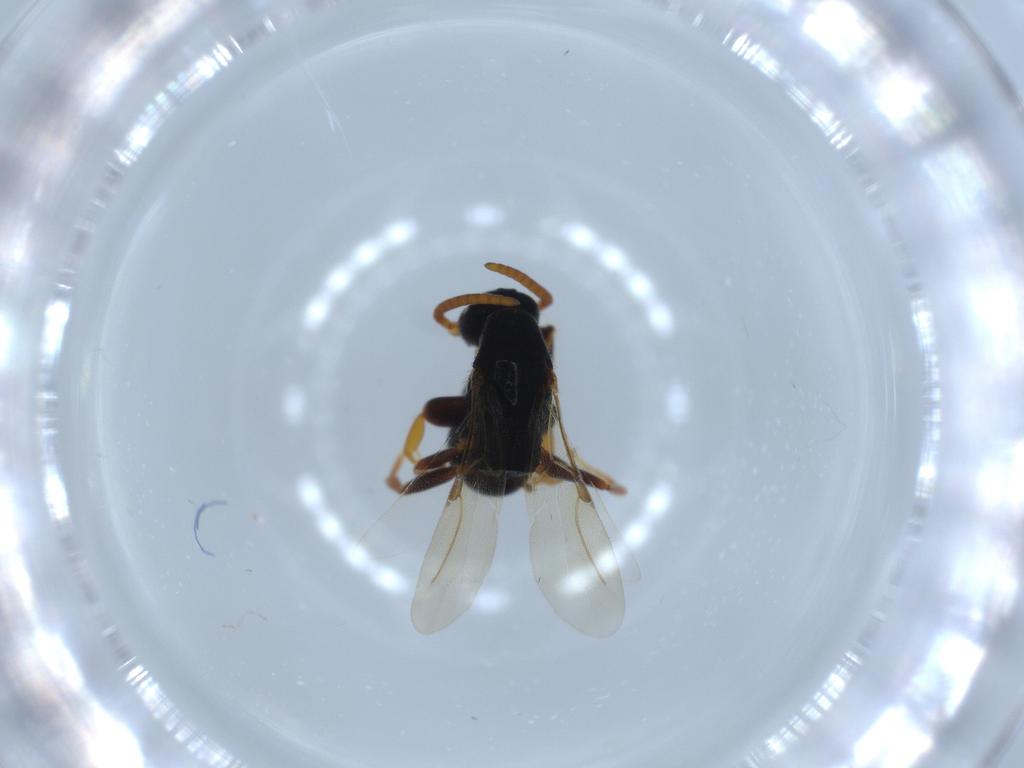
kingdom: Animalia
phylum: Arthropoda
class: Insecta
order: Hymenoptera
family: Bethylidae
